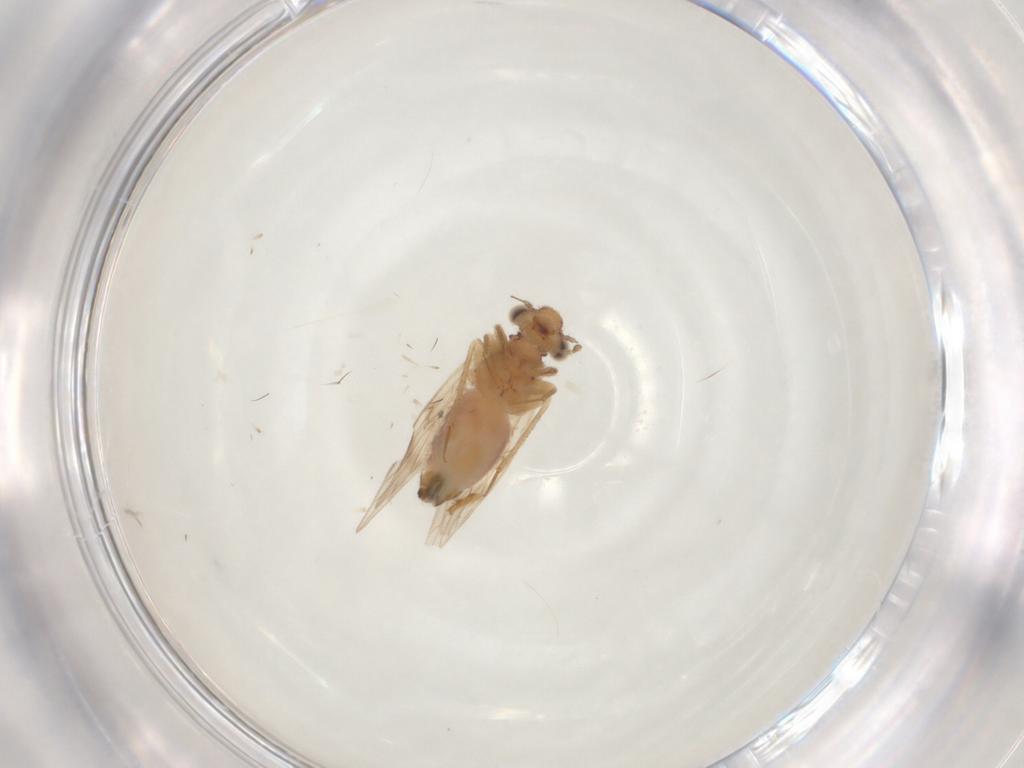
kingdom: Animalia
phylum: Arthropoda
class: Insecta
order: Psocodea
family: Lepidopsocidae
